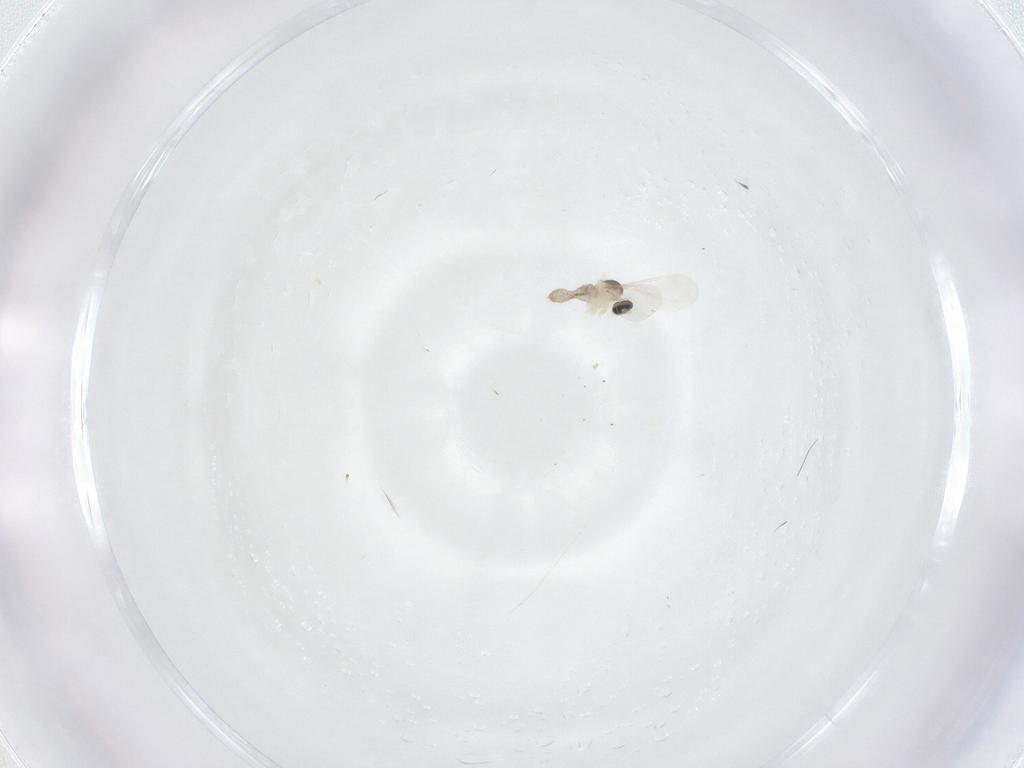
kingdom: Animalia
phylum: Arthropoda
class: Insecta
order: Diptera
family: Cecidomyiidae
